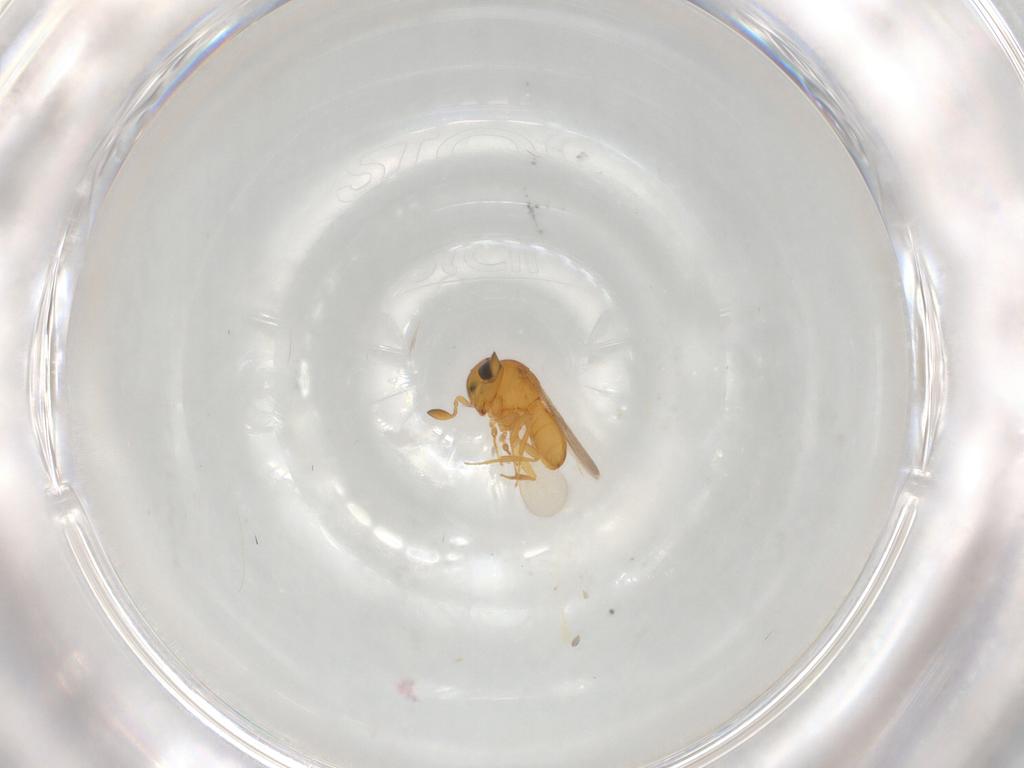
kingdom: Animalia
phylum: Arthropoda
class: Insecta
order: Hymenoptera
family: Scelionidae
